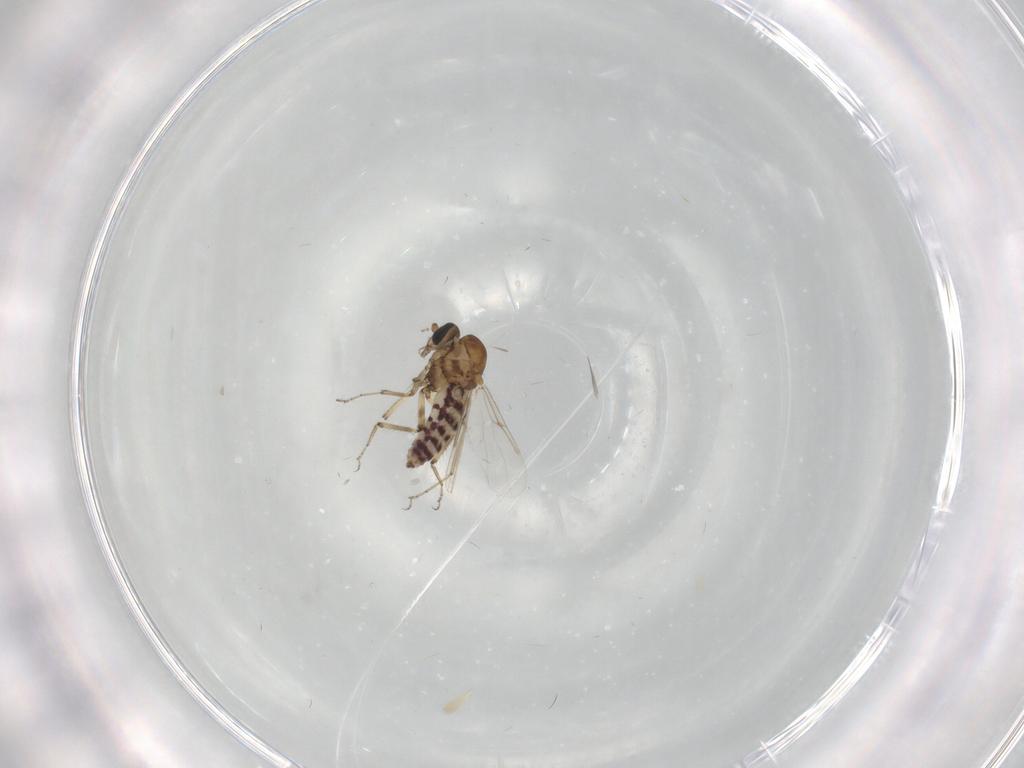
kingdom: Animalia
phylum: Arthropoda
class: Insecta
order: Diptera
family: Ceratopogonidae
